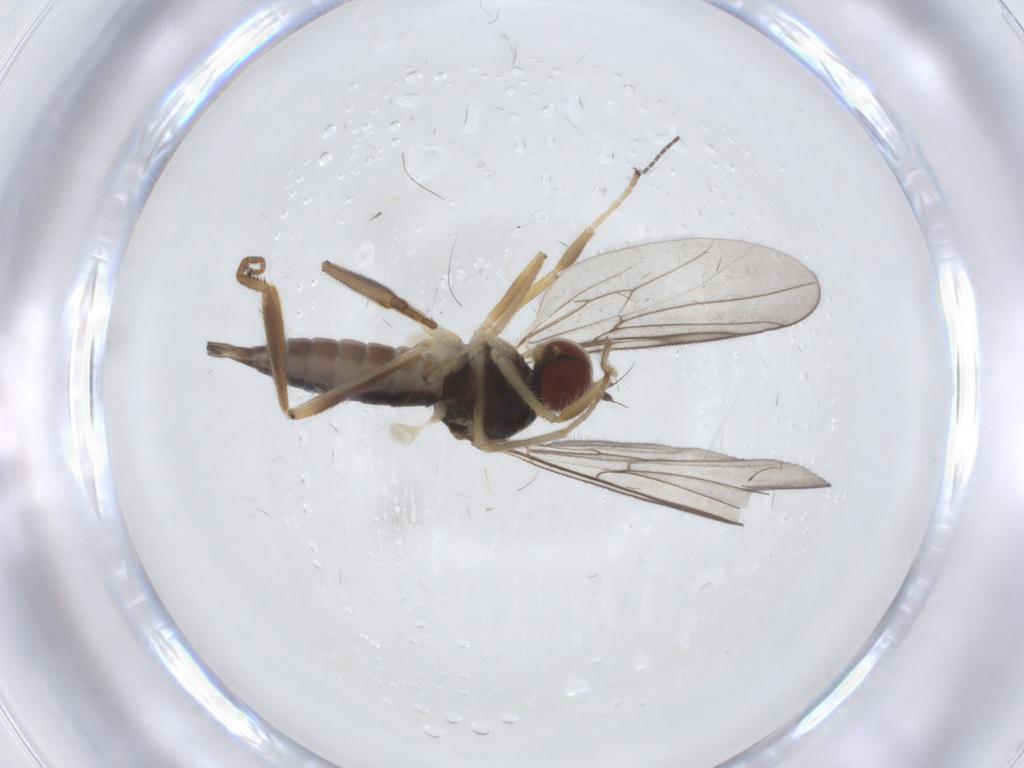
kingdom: Animalia
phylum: Arthropoda
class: Insecta
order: Diptera
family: Hybotidae
